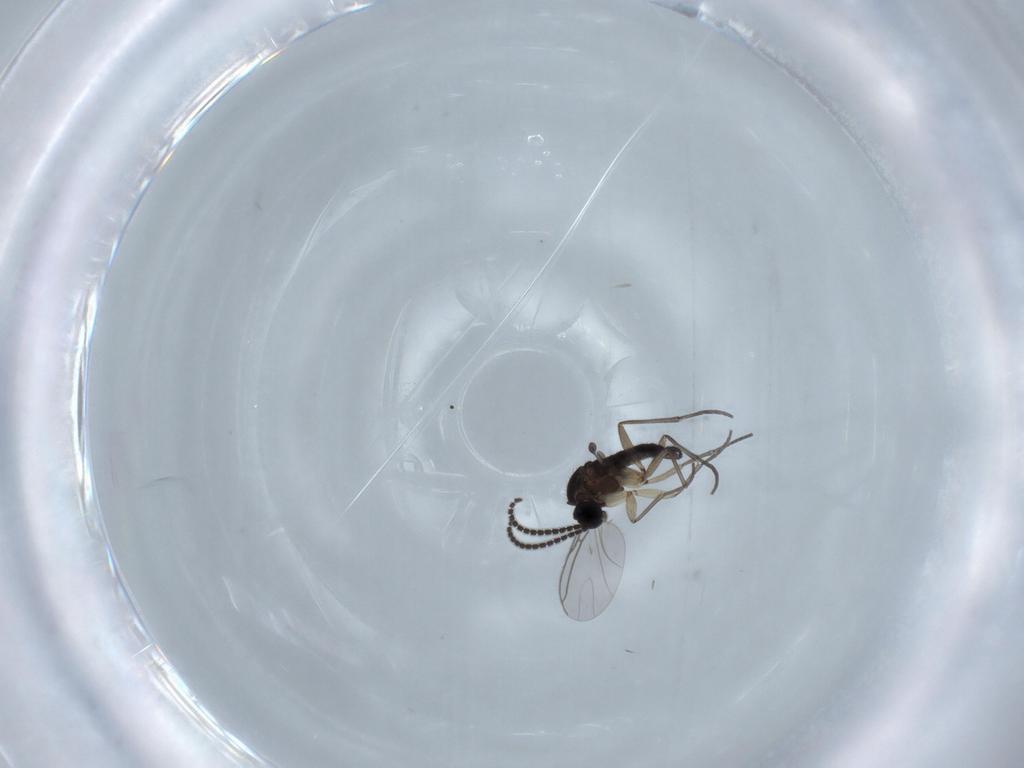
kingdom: Animalia
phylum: Arthropoda
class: Insecta
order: Diptera
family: Sciaridae
